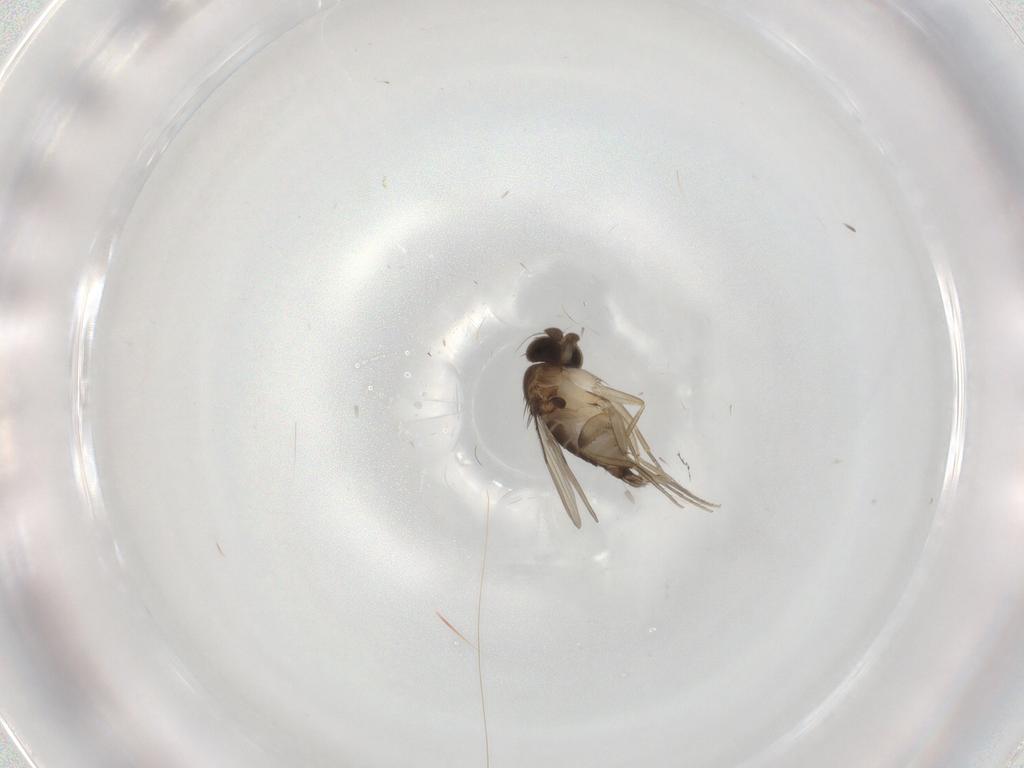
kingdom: Animalia
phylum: Arthropoda
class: Insecta
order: Diptera
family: Phoridae
